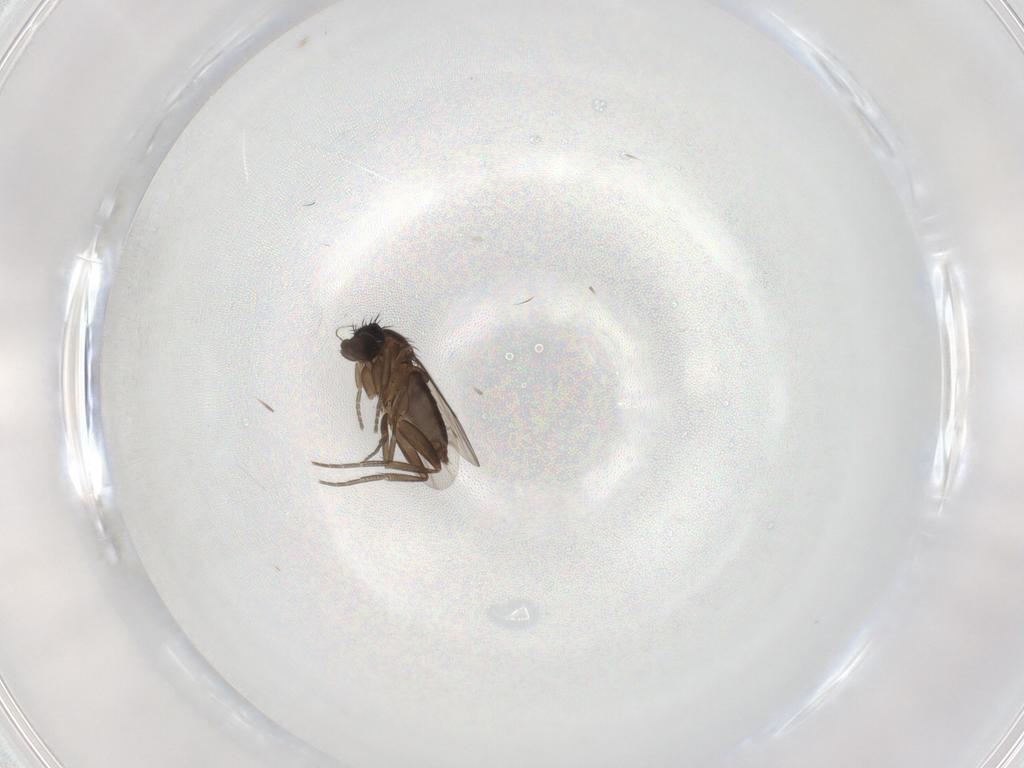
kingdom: Animalia
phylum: Arthropoda
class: Insecta
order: Diptera
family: Phoridae
